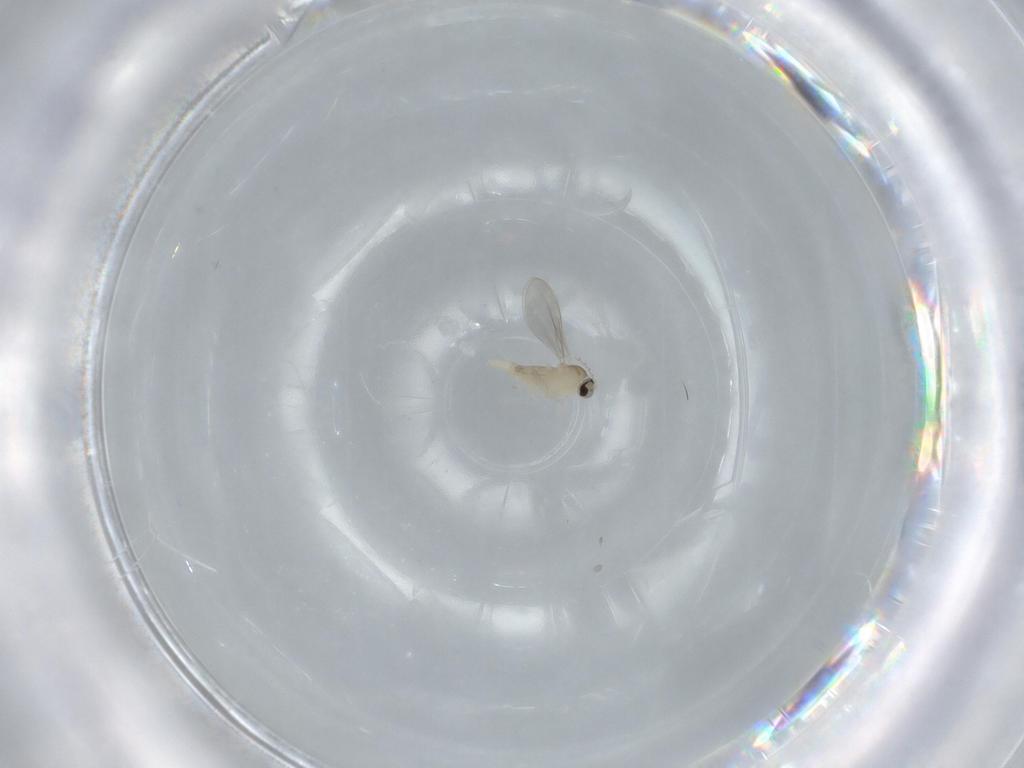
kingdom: Animalia
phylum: Arthropoda
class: Insecta
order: Diptera
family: Cecidomyiidae
